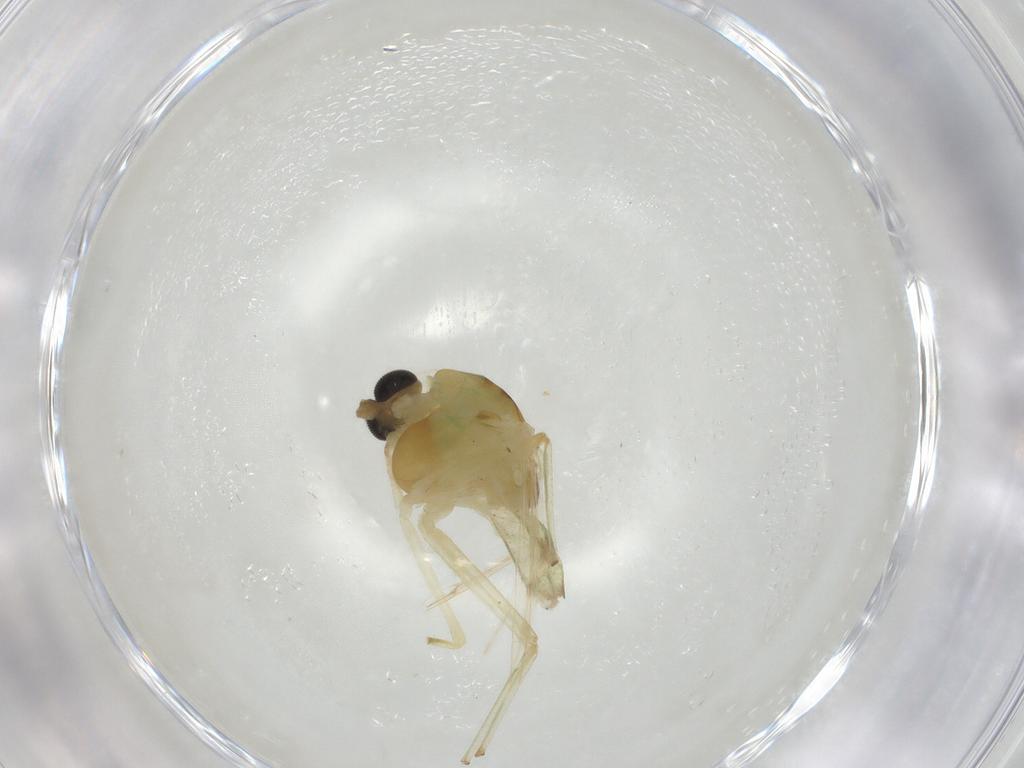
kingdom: Animalia
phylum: Arthropoda
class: Insecta
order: Diptera
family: Chironomidae
